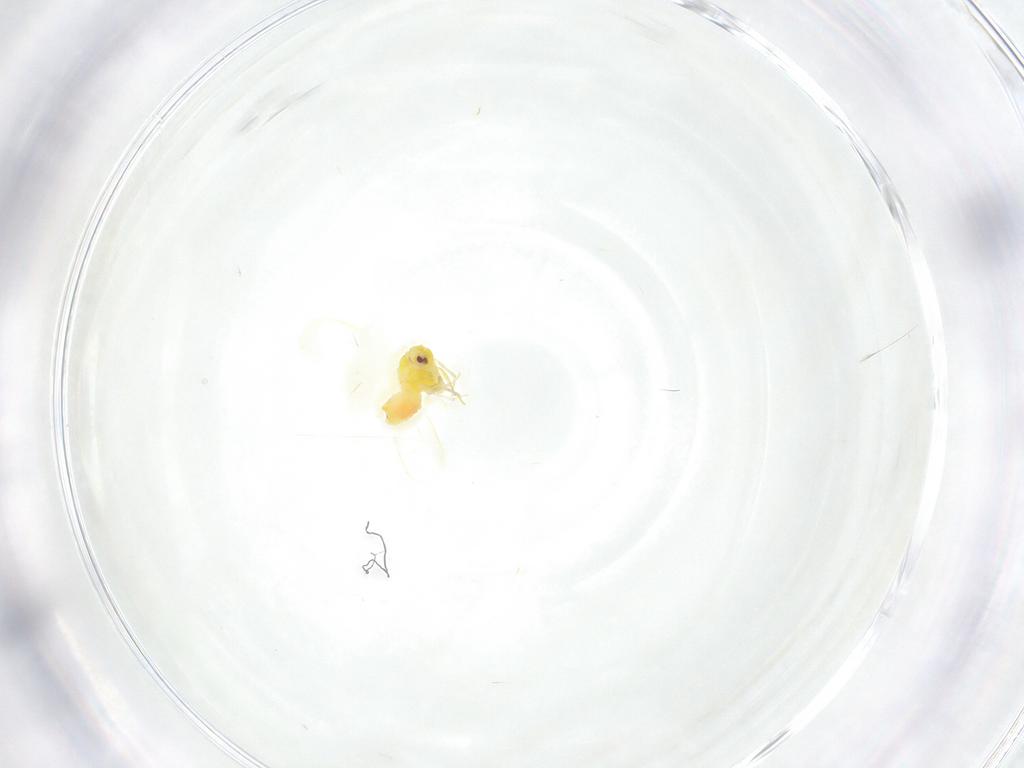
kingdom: Animalia
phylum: Arthropoda
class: Insecta
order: Hemiptera
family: Aleyrodidae
